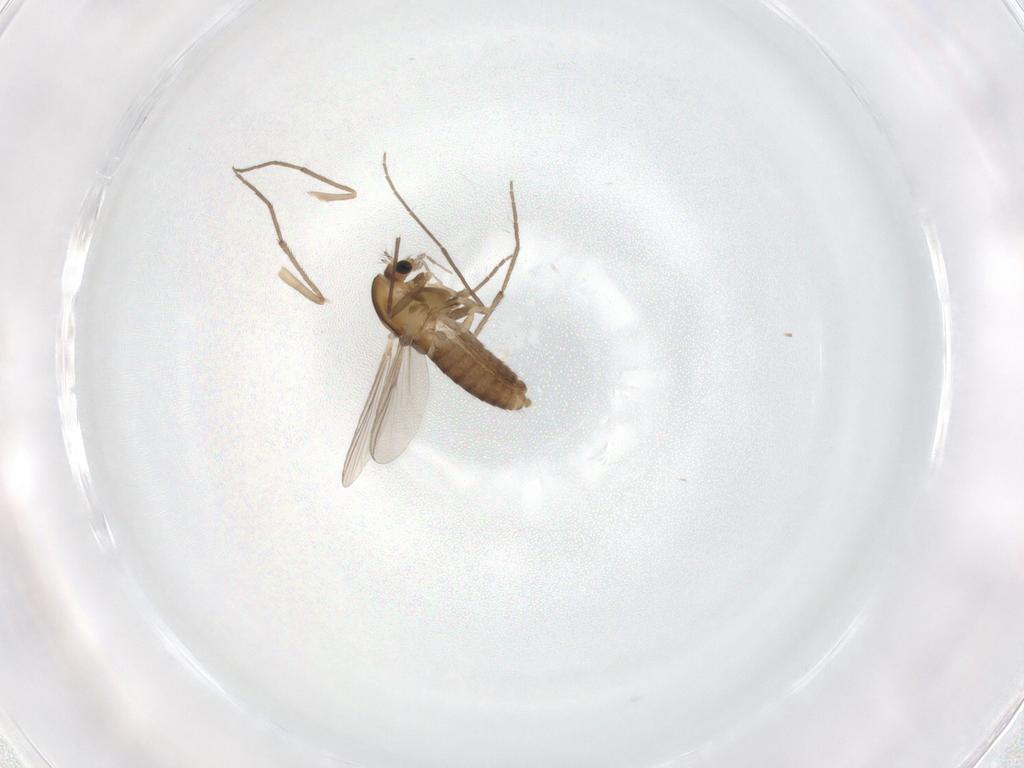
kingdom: Animalia
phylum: Arthropoda
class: Insecta
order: Diptera
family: Chironomidae
